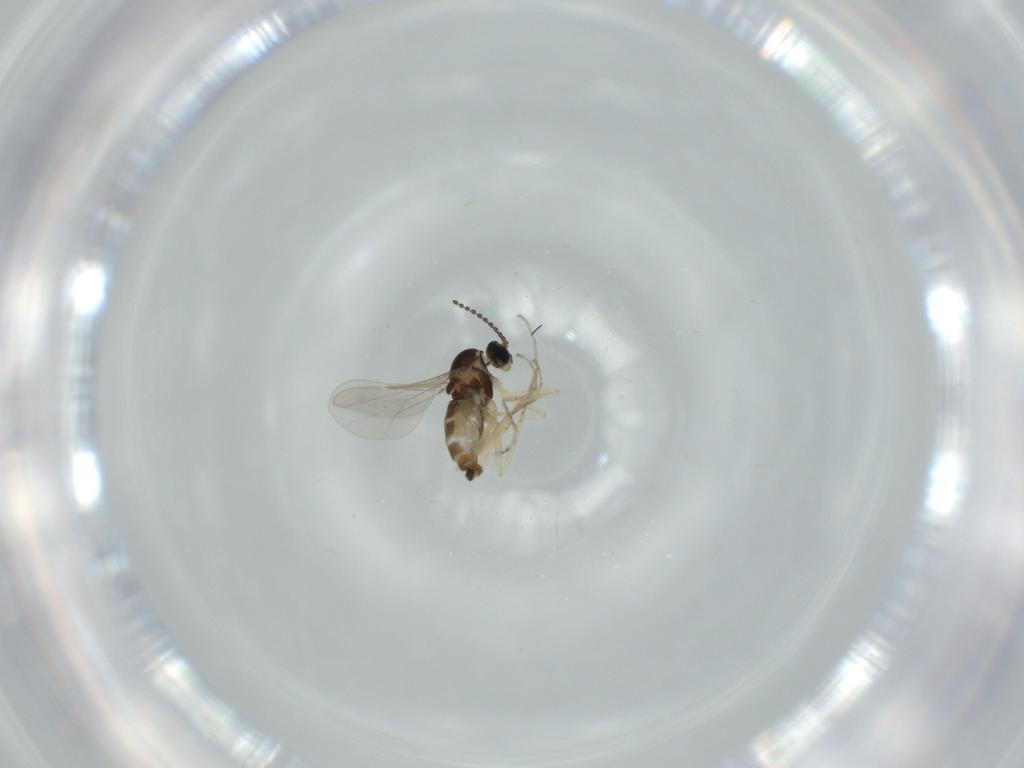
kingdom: Animalia
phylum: Arthropoda
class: Insecta
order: Diptera
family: Cecidomyiidae
